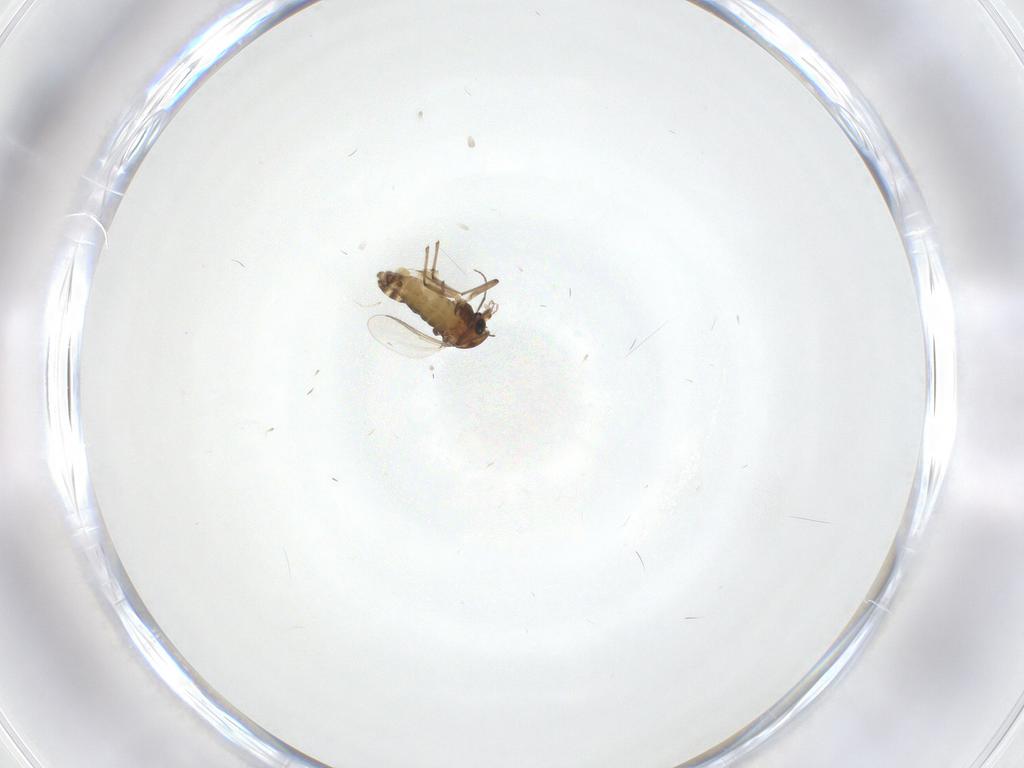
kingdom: Animalia
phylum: Arthropoda
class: Insecta
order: Diptera
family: Chironomidae
